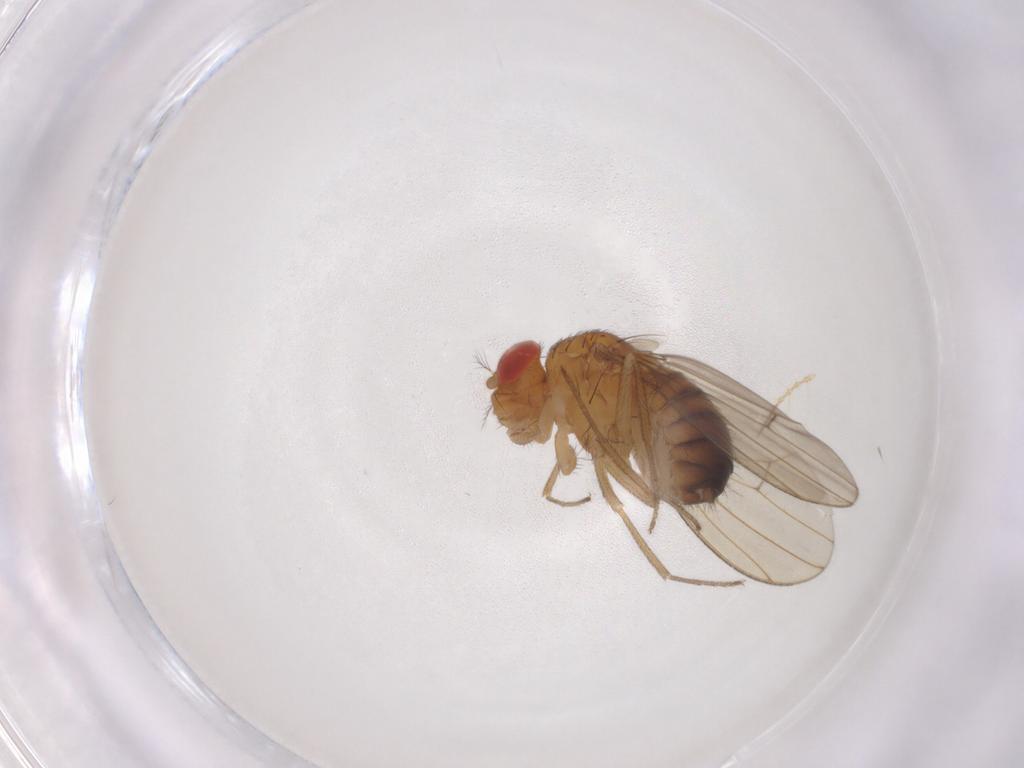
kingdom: Animalia
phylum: Arthropoda
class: Insecta
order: Diptera
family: Drosophilidae
